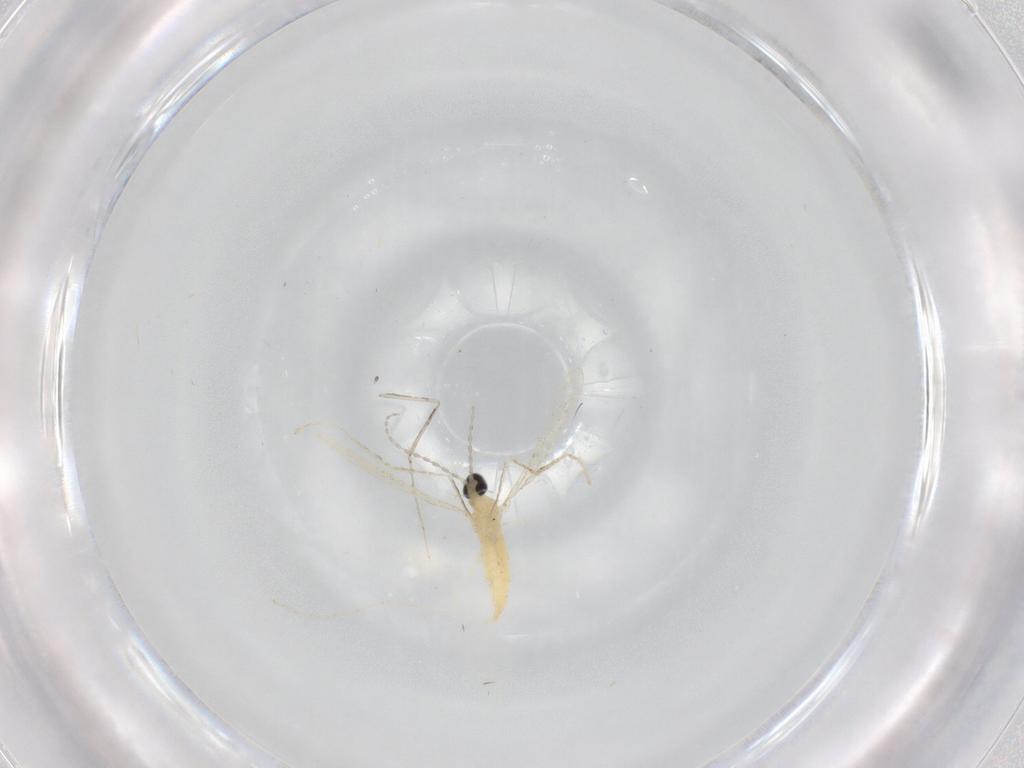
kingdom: Animalia
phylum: Arthropoda
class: Insecta
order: Diptera
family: Cecidomyiidae
